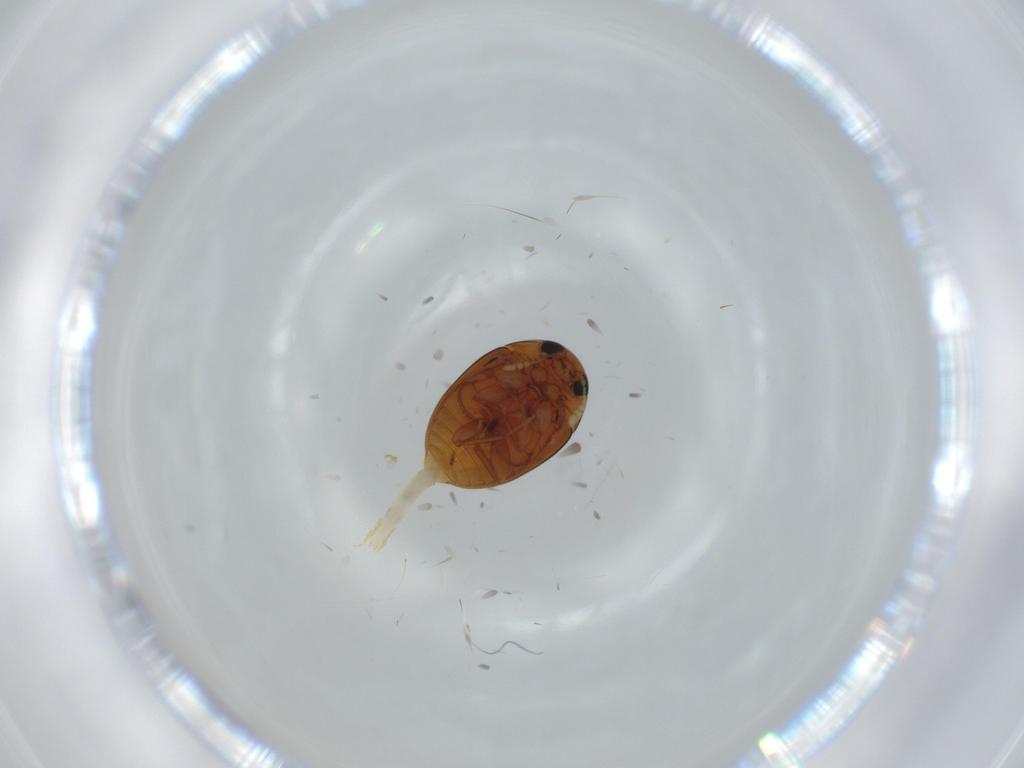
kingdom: Animalia
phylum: Arthropoda
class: Insecta
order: Coleoptera
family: Phalacridae
